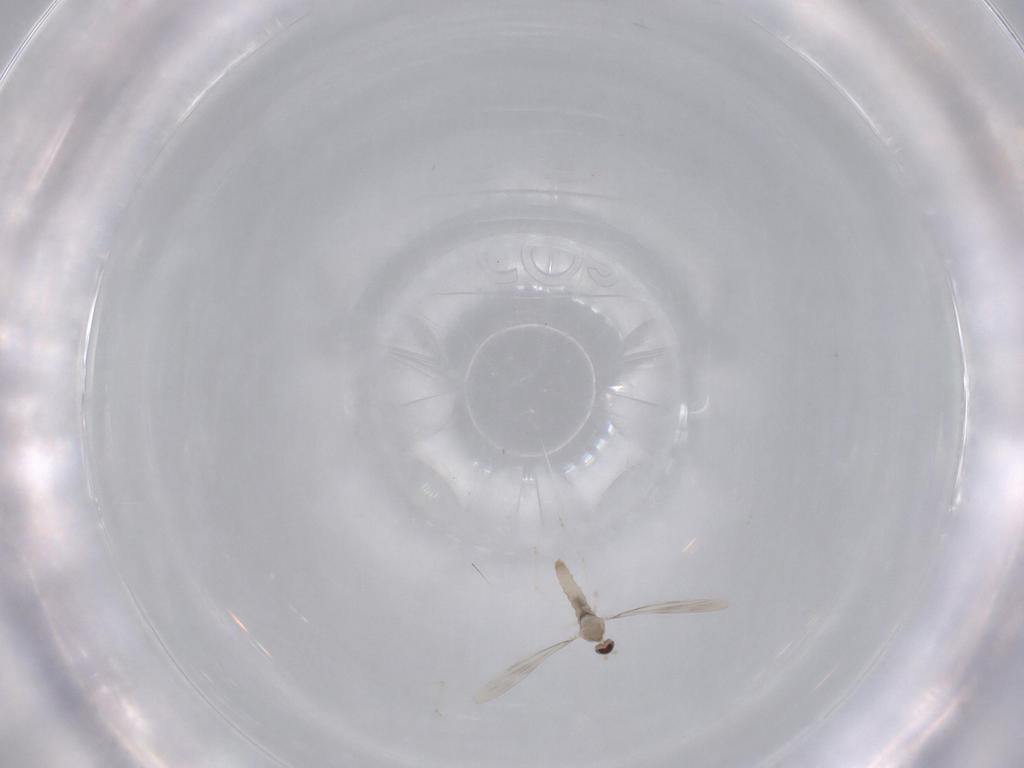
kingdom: Animalia
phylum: Arthropoda
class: Insecta
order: Diptera
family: Cecidomyiidae
